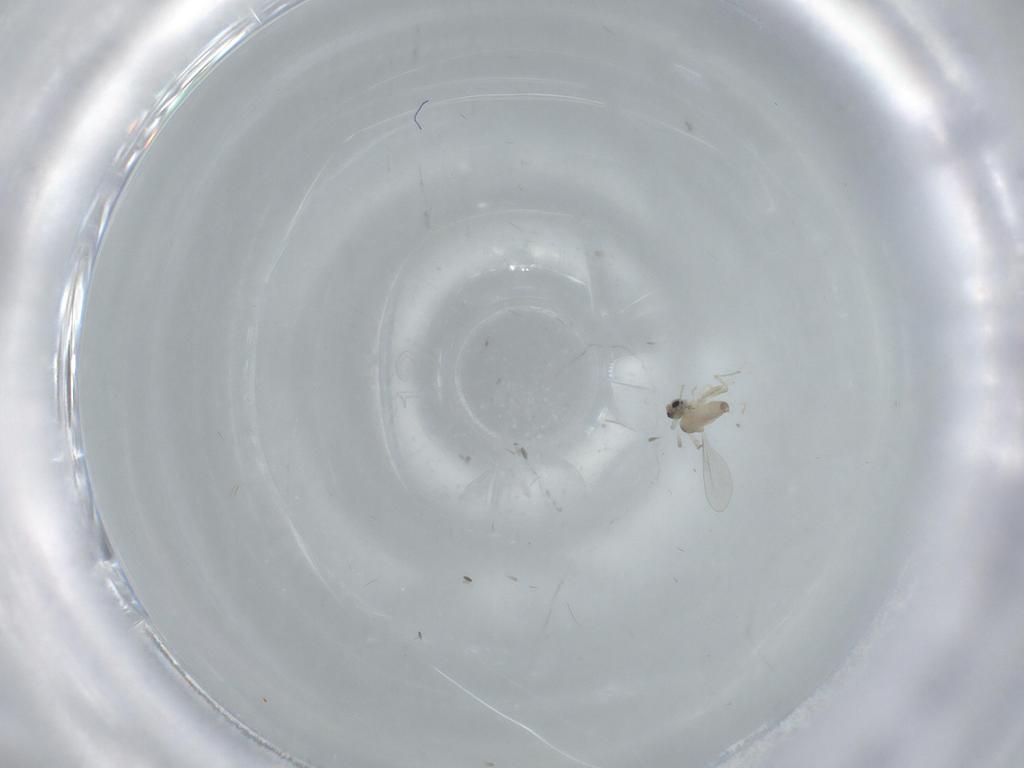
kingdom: Animalia
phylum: Arthropoda
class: Insecta
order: Diptera
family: Cecidomyiidae
